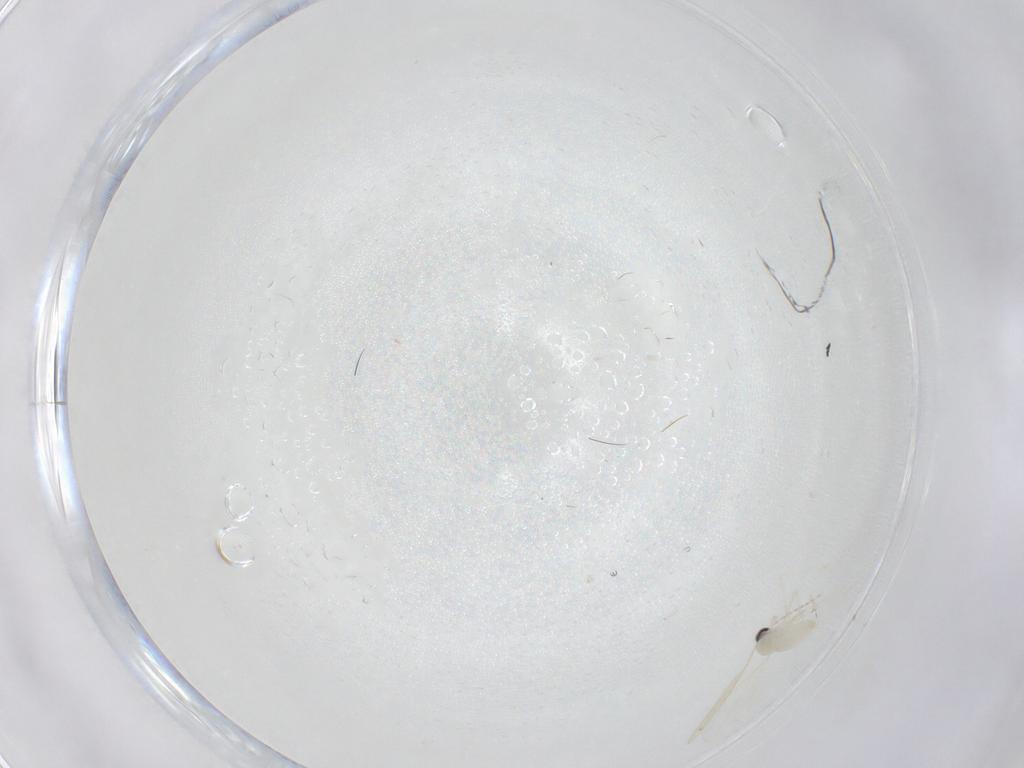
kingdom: Animalia
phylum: Arthropoda
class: Insecta
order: Diptera
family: Cecidomyiidae
